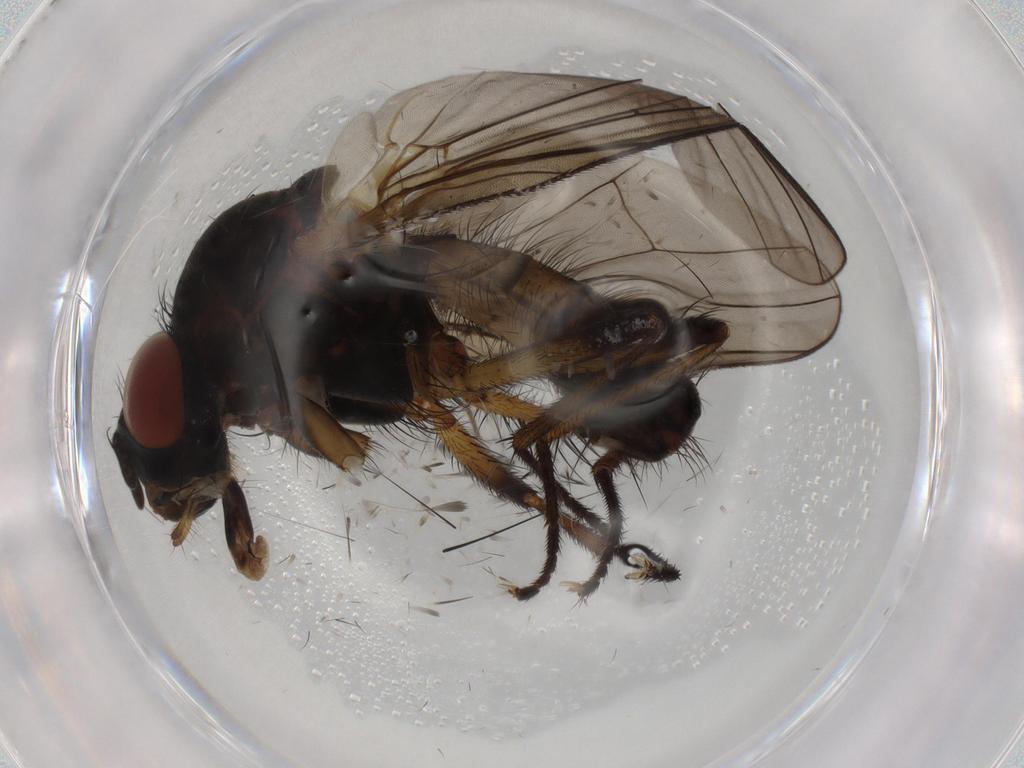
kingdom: Animalia
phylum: Arthropoda
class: Insecta
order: Diptera
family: Anthomyiidae
